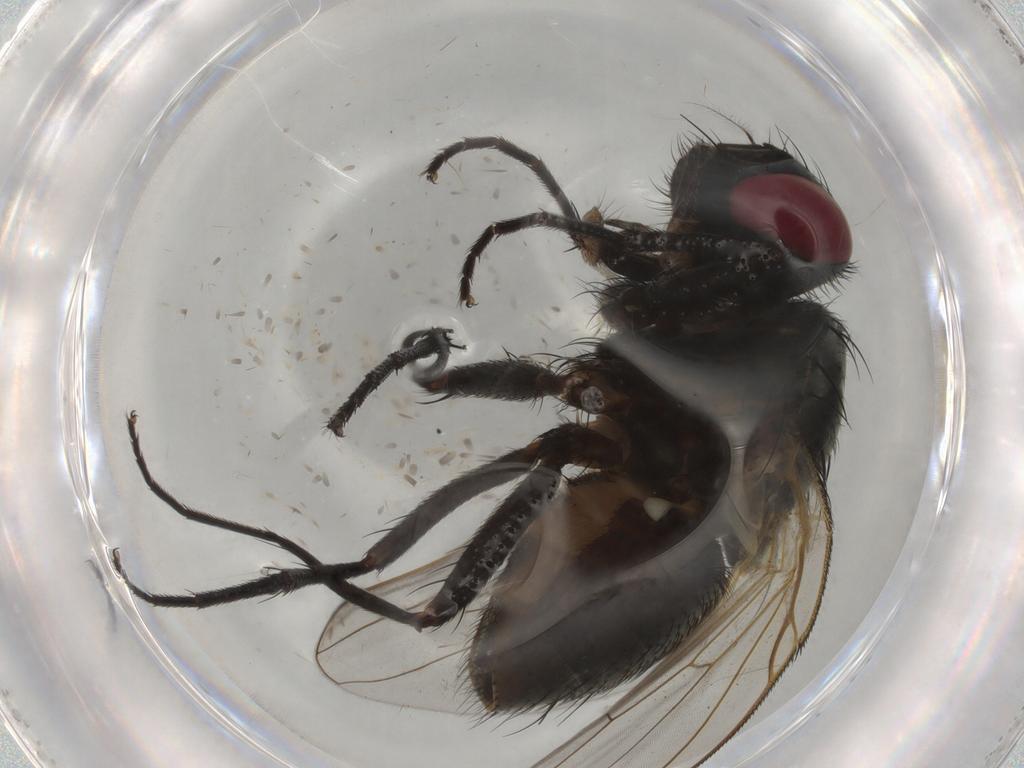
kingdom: Animalia
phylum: Arthropoda
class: Insecta
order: Diptera
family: Muscidae
